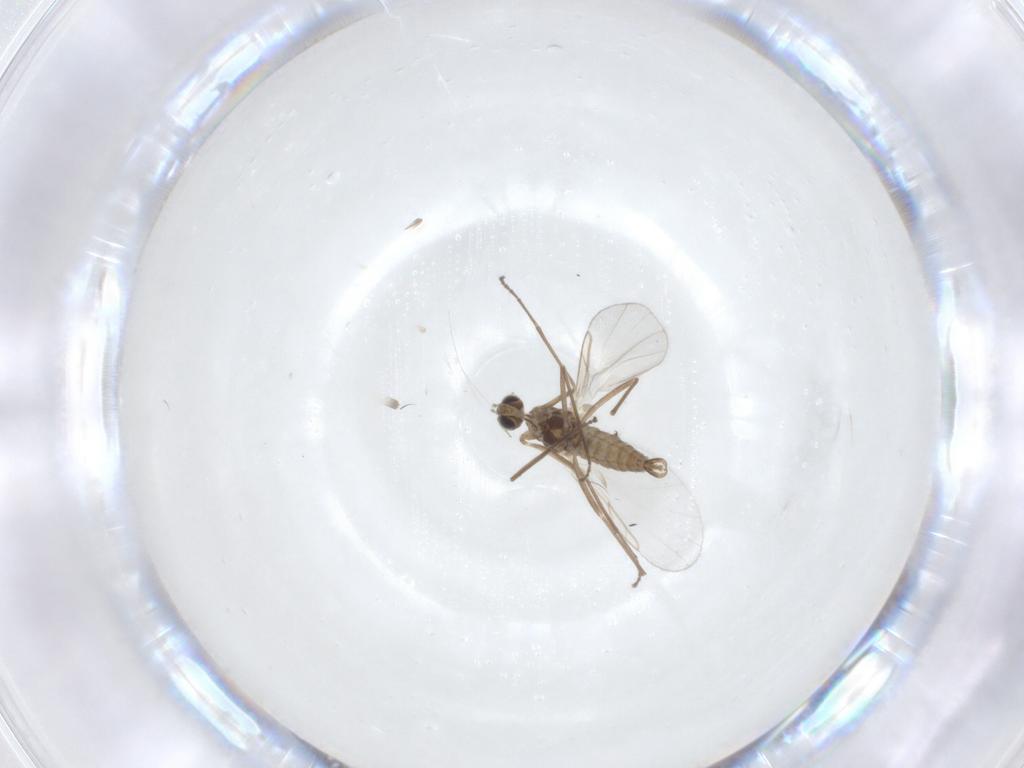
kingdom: Animalia
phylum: Arthropoda
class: Insecta
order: Diptera
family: Cecidomyiidae
